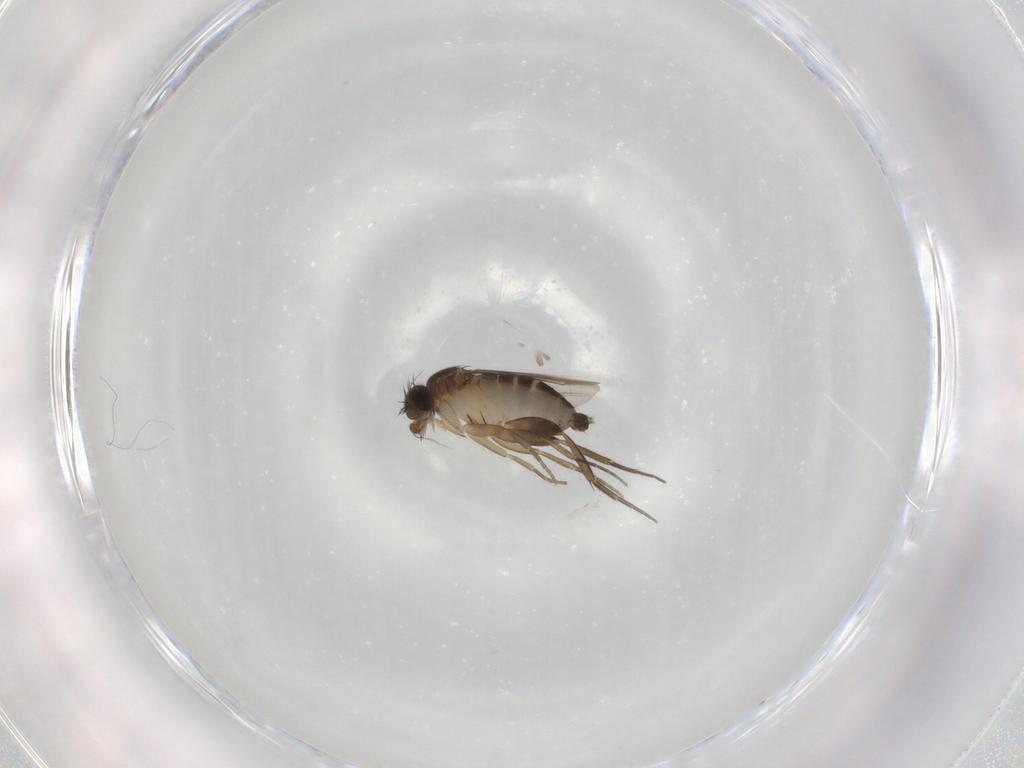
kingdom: Animalia
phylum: Arthropoda
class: Insecta
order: Diptera
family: Phoridae
